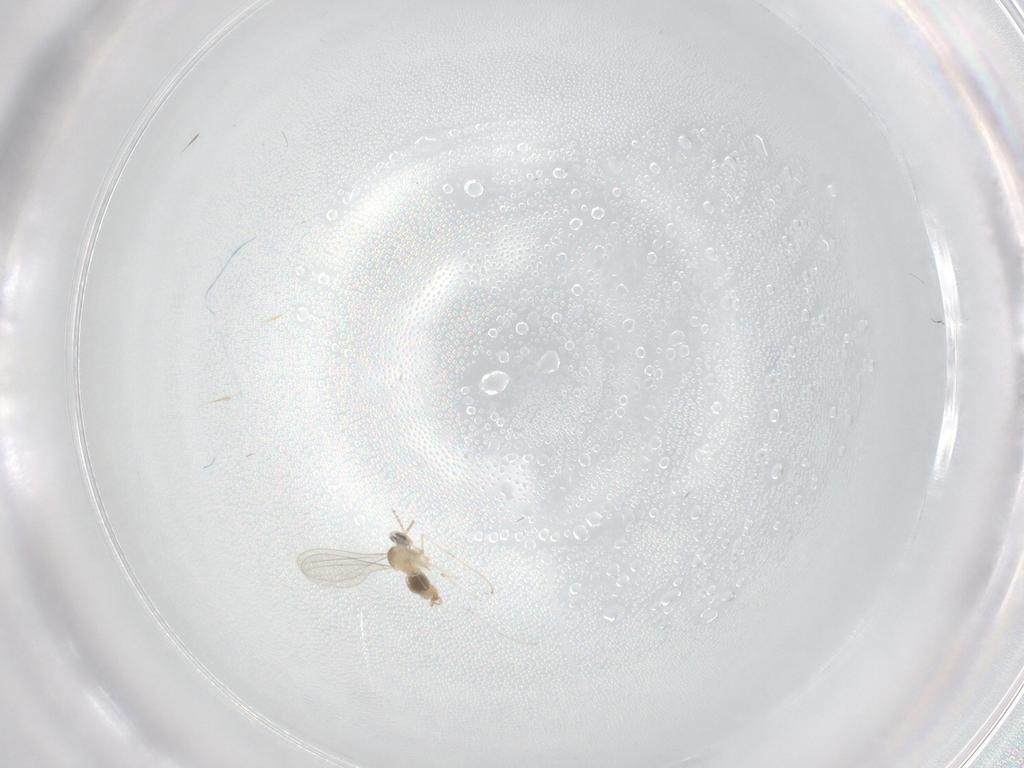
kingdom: Animalia
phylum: Arthropoda
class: Insecta
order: Diptera
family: Cecidomyiidae
